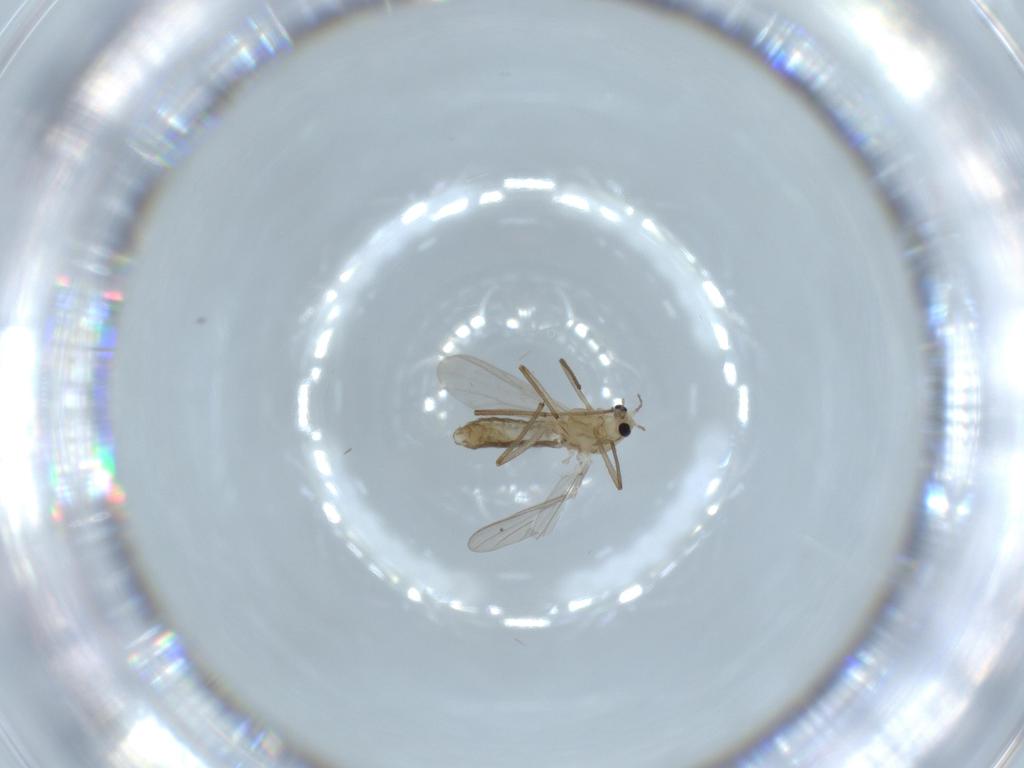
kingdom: Animalia
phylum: Arthropoda
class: Insecta
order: Diptera
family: Chironomidae
